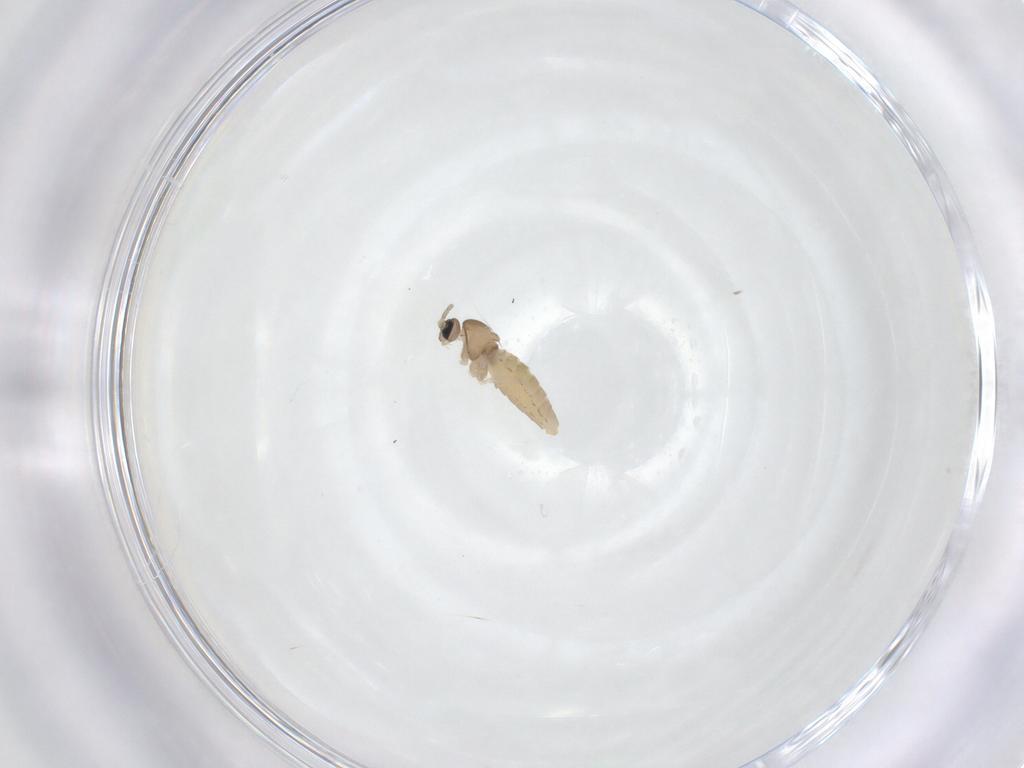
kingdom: Animalia
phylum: Arthropoda
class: Insecta
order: Diptera
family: Cecidomyiidae
